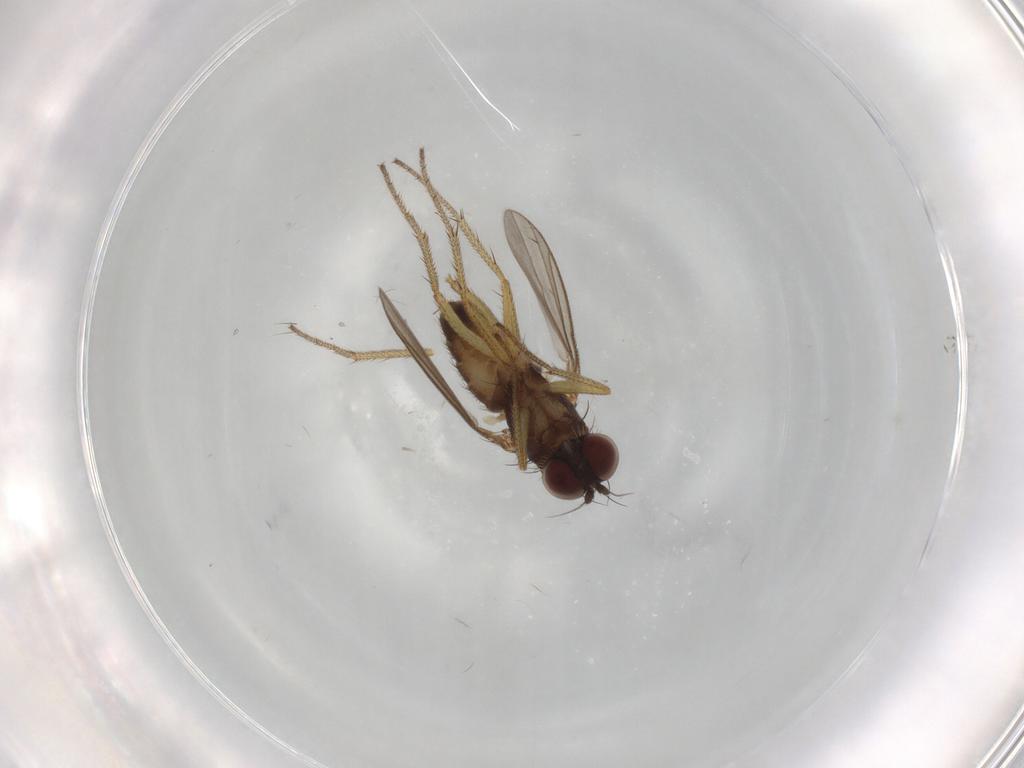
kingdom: Animalia
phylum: Arthropoda
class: Insecta
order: Diptera
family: Dolichopodidae
